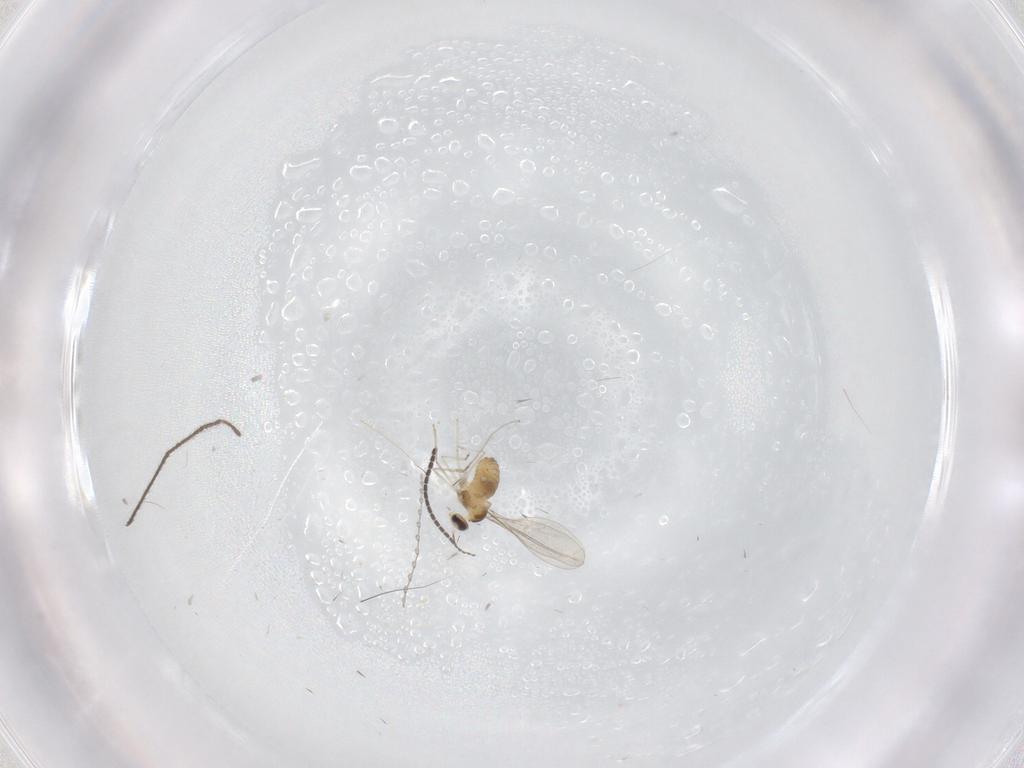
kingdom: Animalia
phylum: Arthropoda
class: Insecta
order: Diptera
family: Cecidomyiidae
